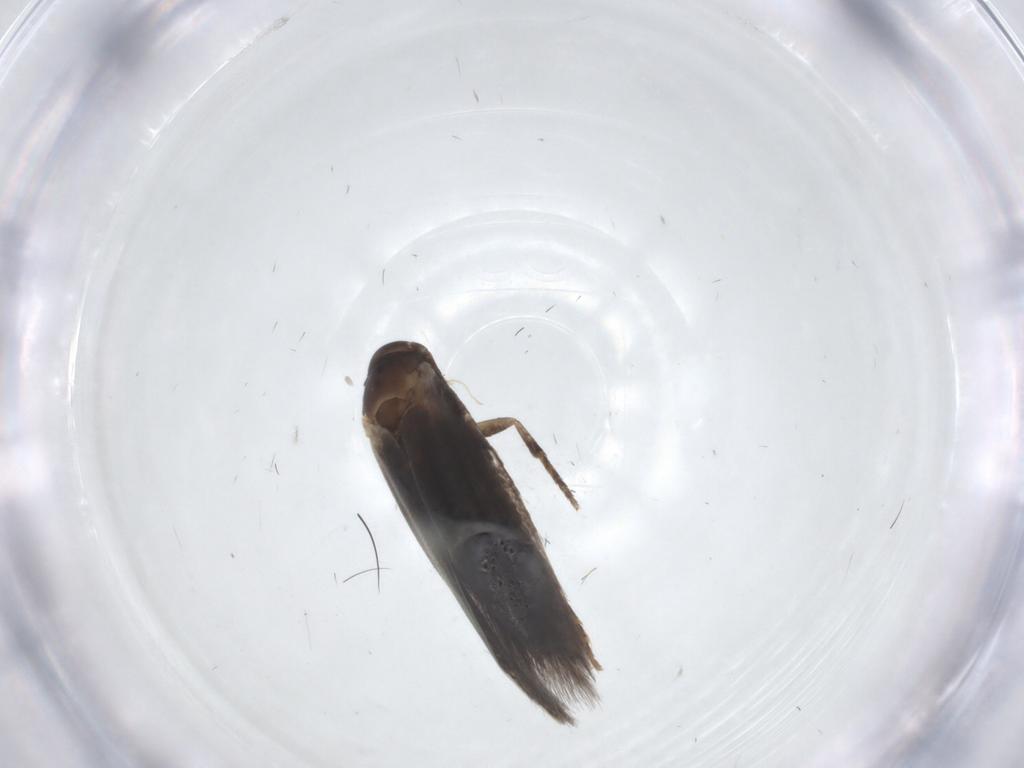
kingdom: Animalia
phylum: Arthropoda
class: Insecta
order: Lepidoptera
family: Elachistidae
